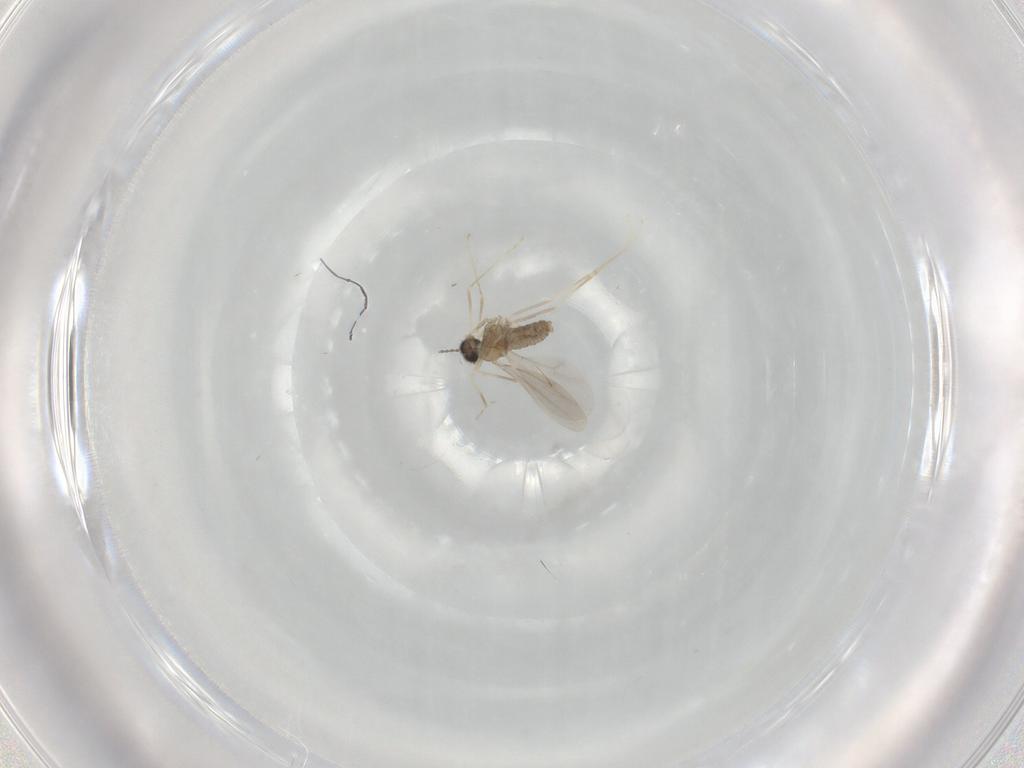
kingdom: Animalia
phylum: Arthropoda
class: Insecta
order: Diptera
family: Cecidomyiidae
